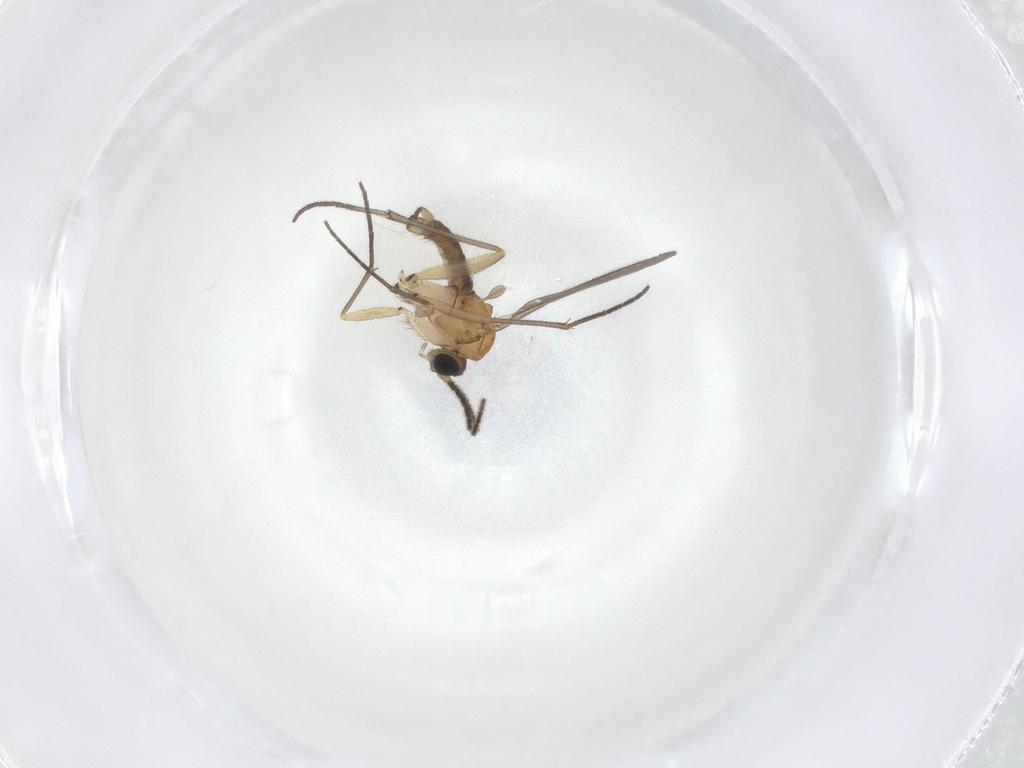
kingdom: Animalia
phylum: Arthropoda
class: Insecta
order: Diptera
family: Sciaridae
